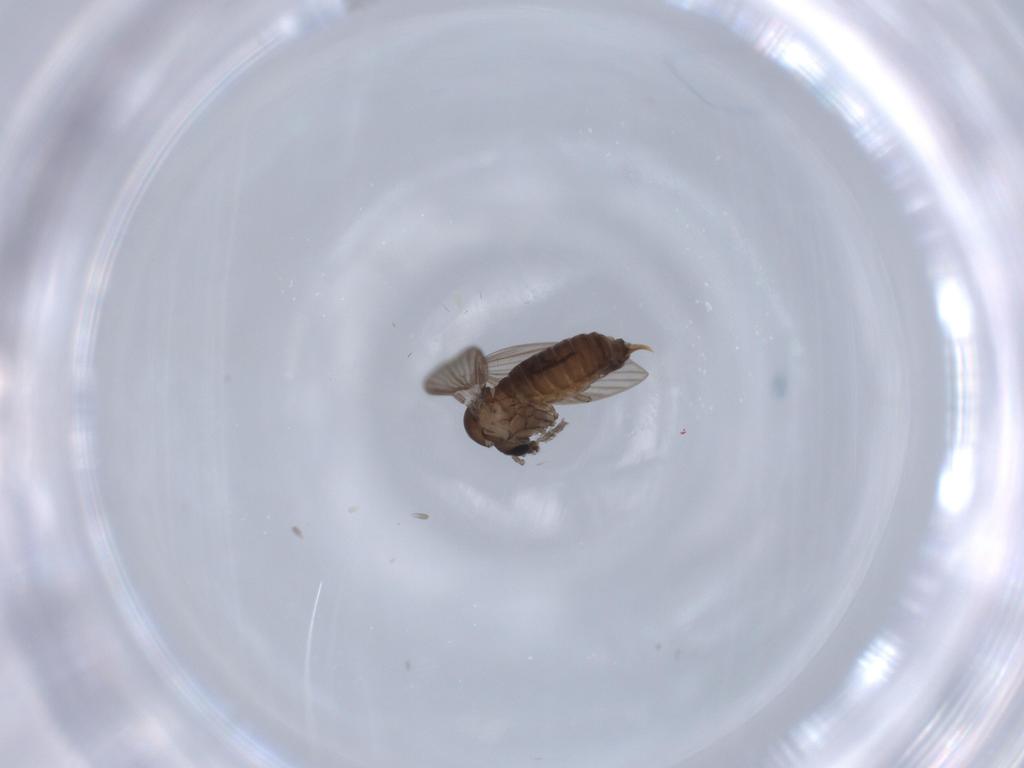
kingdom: Animalia
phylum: Arthropoda
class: Insecta
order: Diptera
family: Psychodidae
